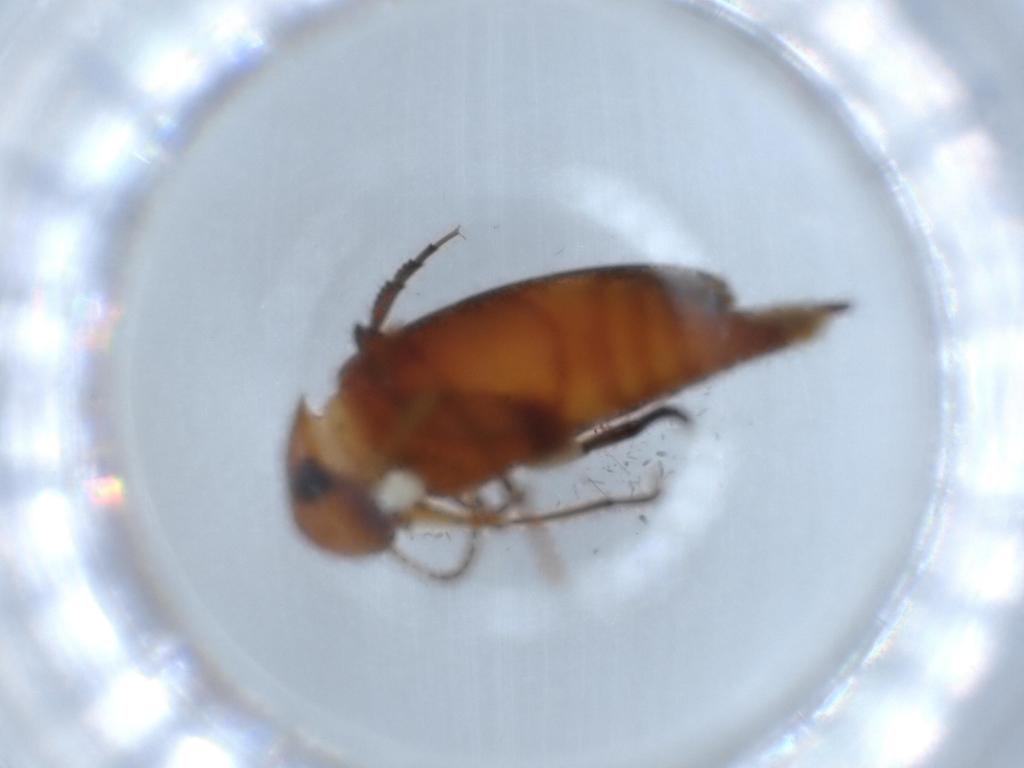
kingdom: Animalia
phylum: Arthropoda
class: Insecta
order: Coleoptera
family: Mordellidae
